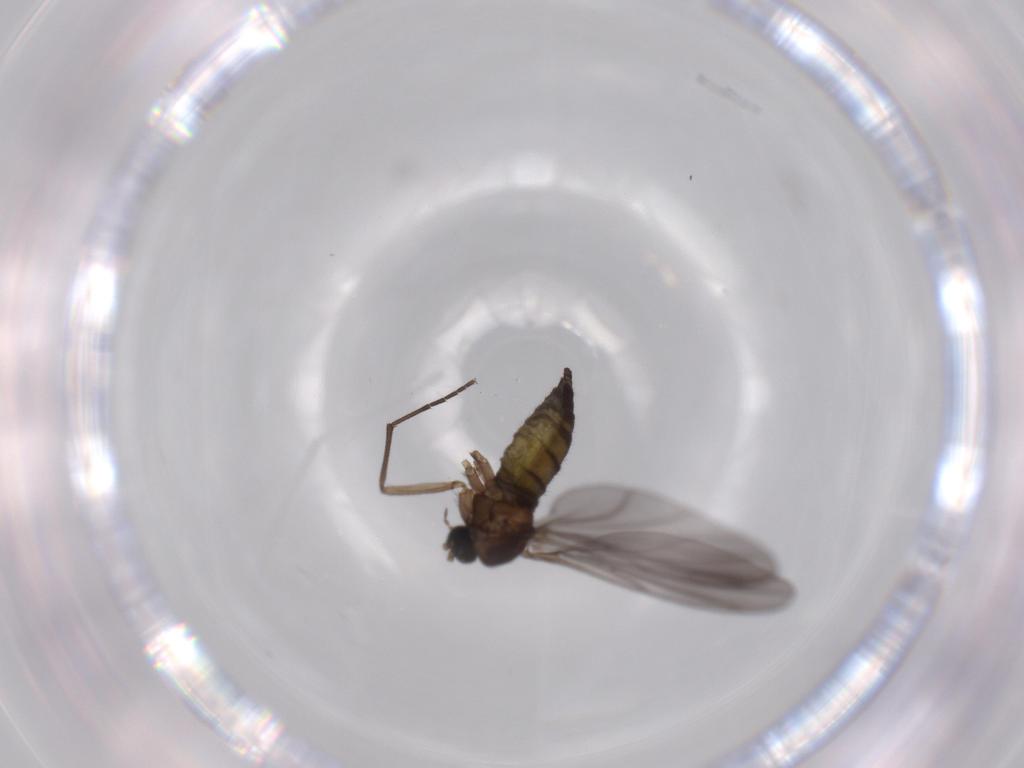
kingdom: Animalia
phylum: Arthropoda
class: Insecta
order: Diptera
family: Sciaridae
